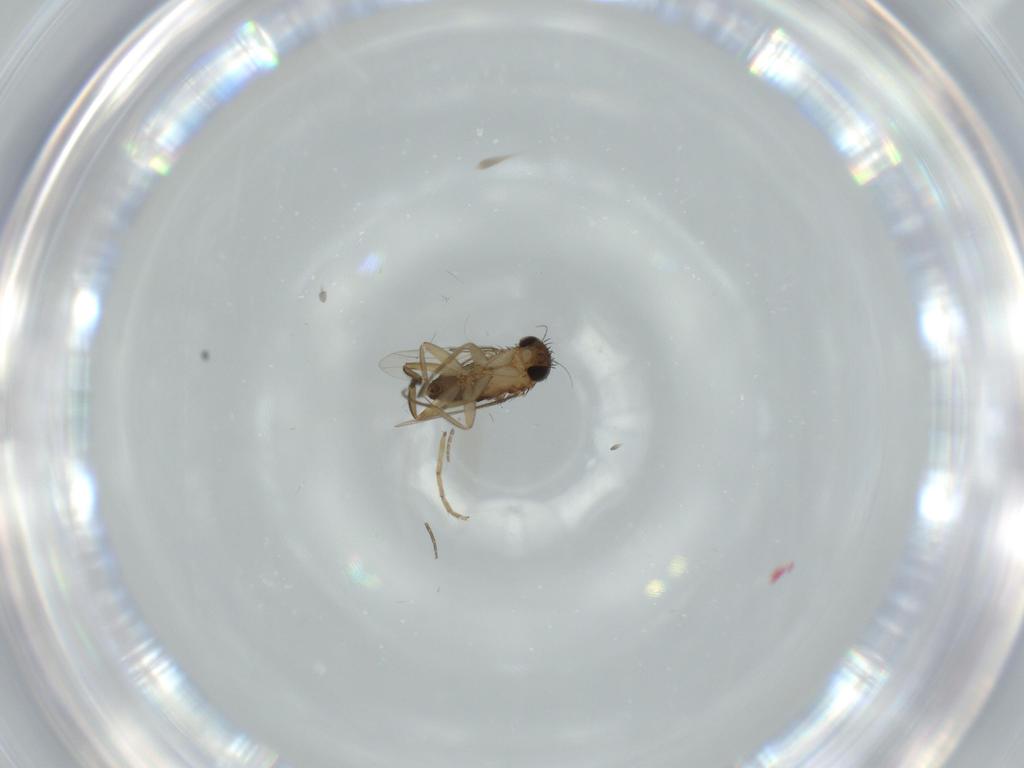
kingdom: Animalia
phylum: Arthropoda
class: Insecta
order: Diptera
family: Phoridae
